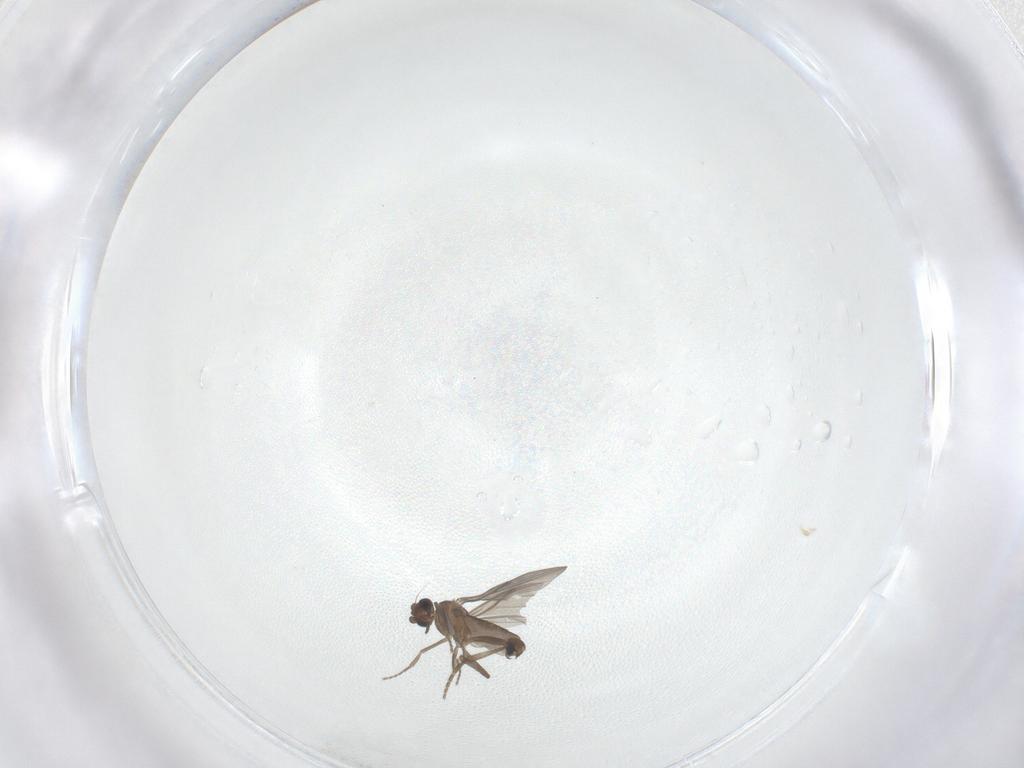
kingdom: Animalia
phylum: Arthropoda
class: Insecta
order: Diptera
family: Phoridae
